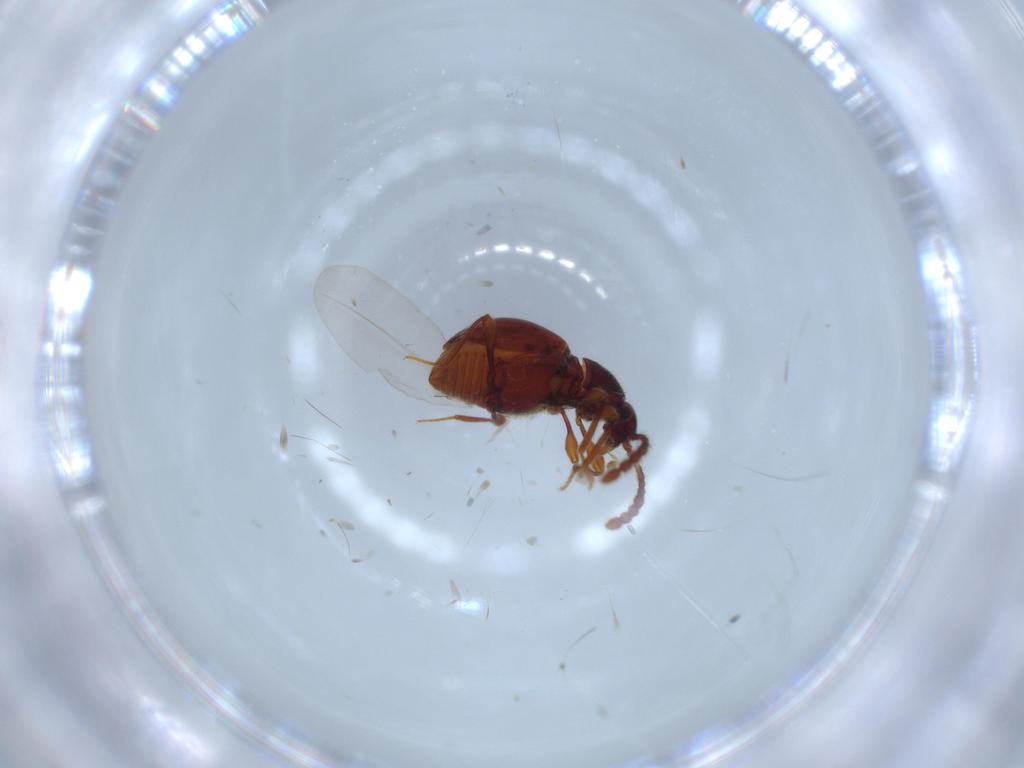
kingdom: Animalia
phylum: Arthropoda
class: Insecta
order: Coleoptera
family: Staphylinidae
